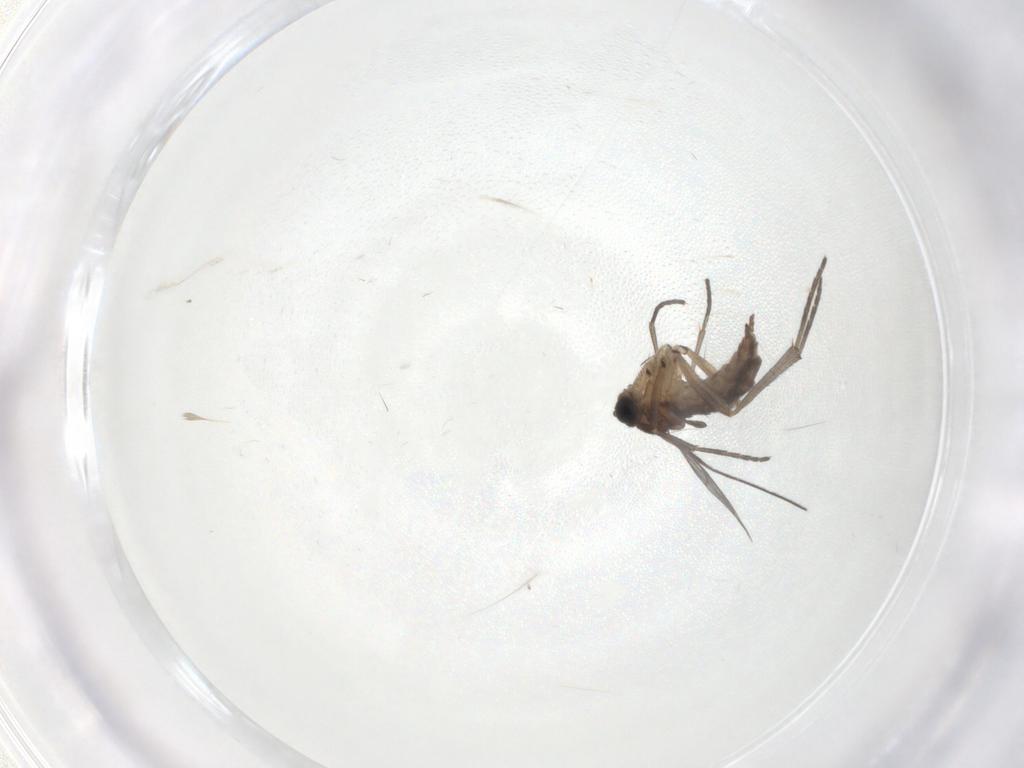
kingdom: Animalia
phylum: Arthropoda
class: Insecta
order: Diptera
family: Sciaridae
